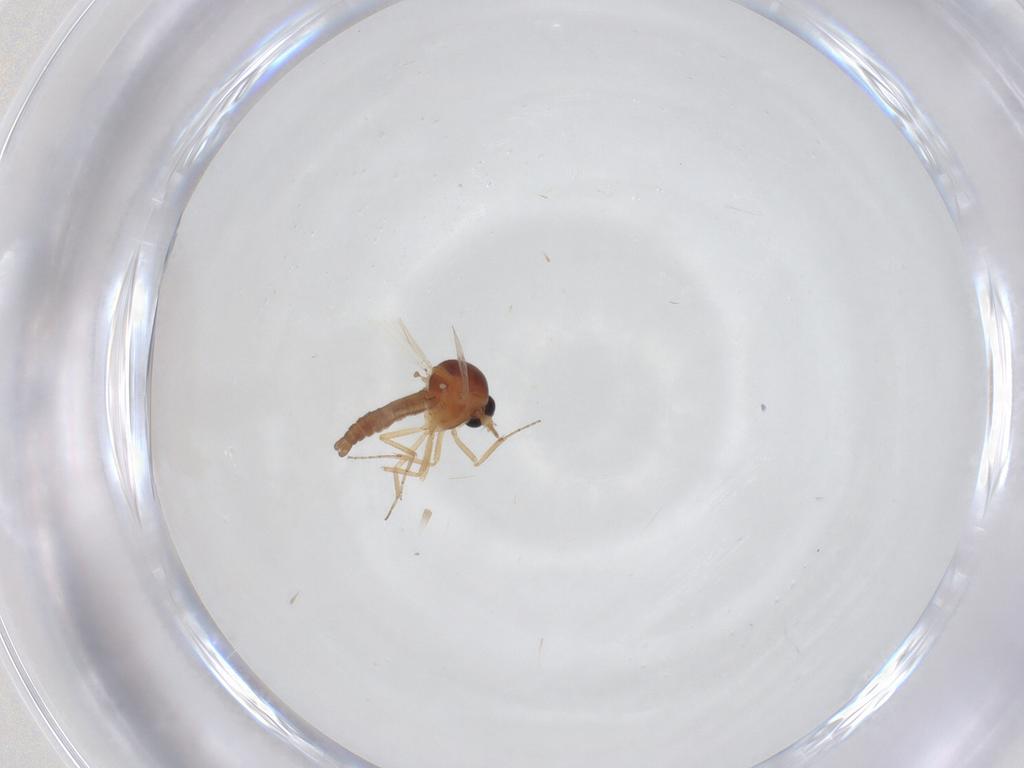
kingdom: Animalia
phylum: Arthropoda
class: Insecta
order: Diptera
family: Ceratopogonidae
